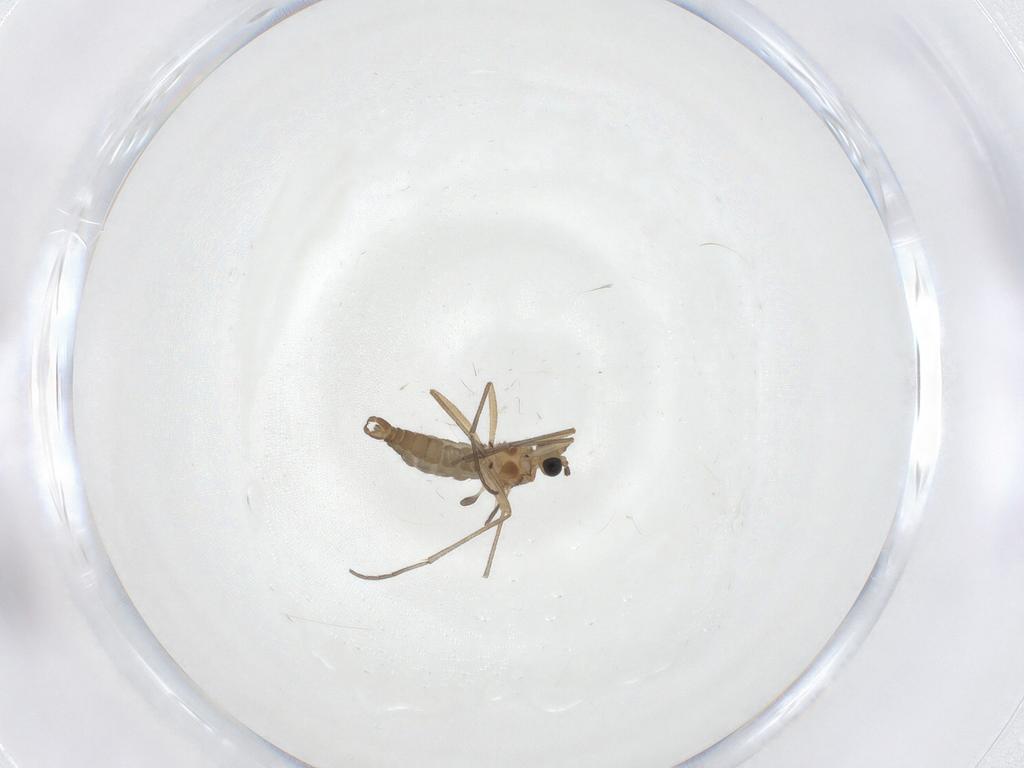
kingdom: Animalia
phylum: Arthropoda
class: Insecta
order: Diptera
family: Sciaridae
